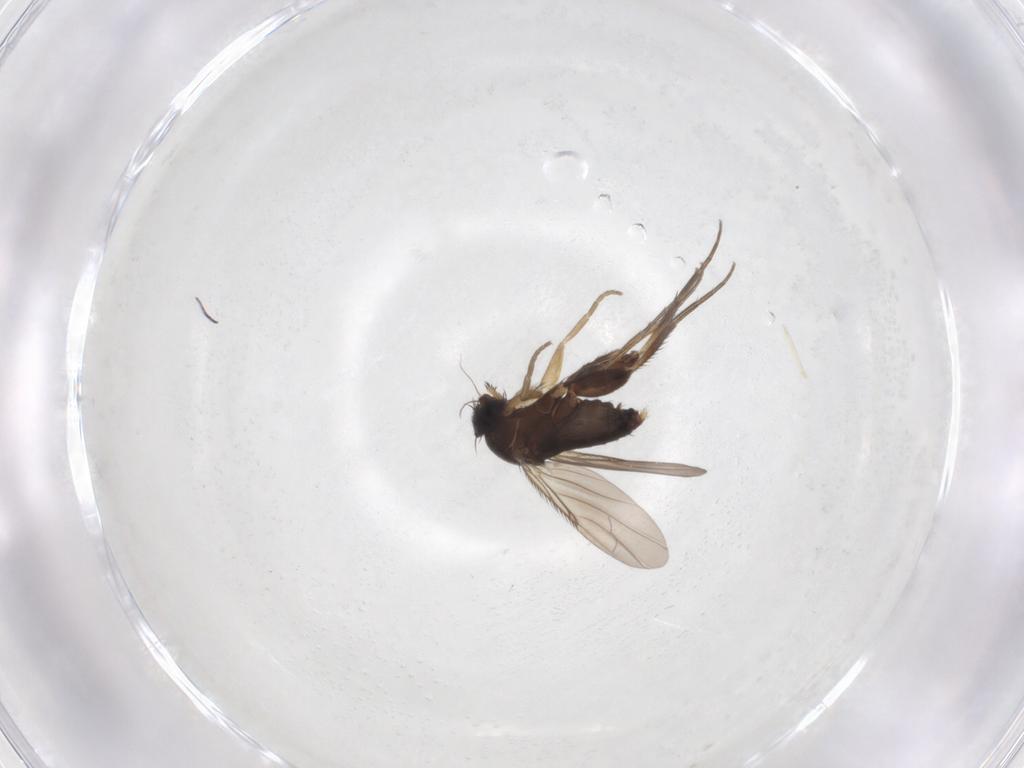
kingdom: Animalia
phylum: Arthropoda
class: Insecta
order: Diptera
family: Phoridae
